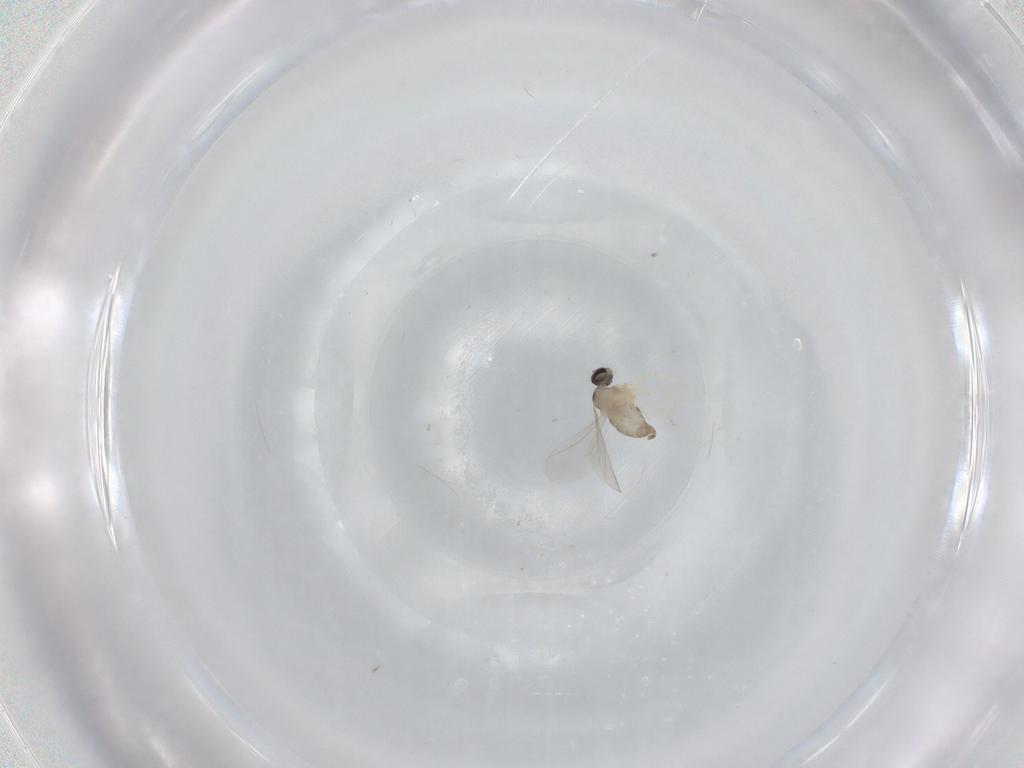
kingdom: Animalia
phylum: Arthropoda
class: Insecta
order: Diptera
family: Cecidomyiidae
